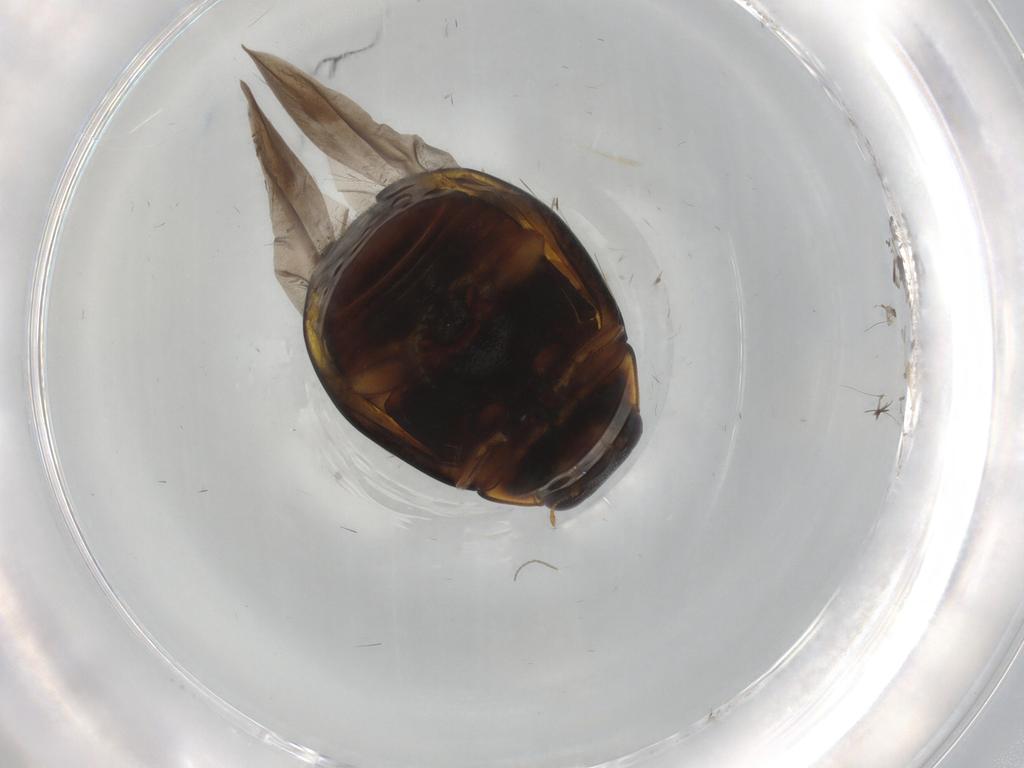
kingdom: Animalia
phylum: Arthropoda
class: Insecta
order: Coleoptera
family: Coccinellidae
